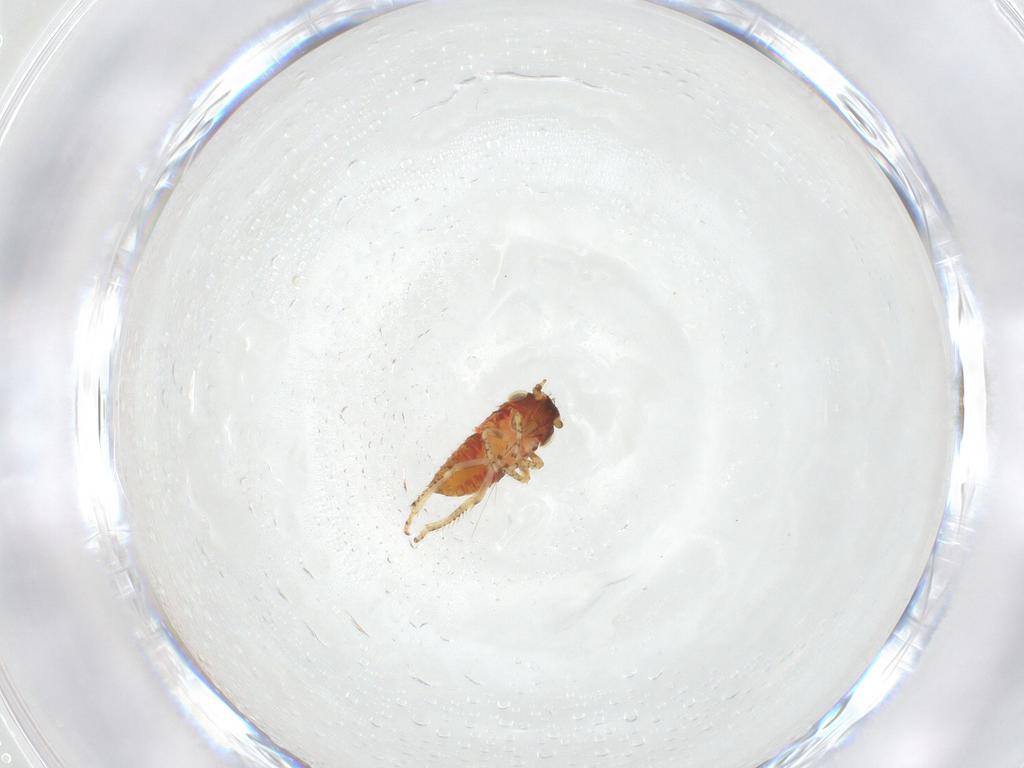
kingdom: Animalia
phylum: Arthropoda
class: Insecta
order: Hemiptera
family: Cicadellidae
